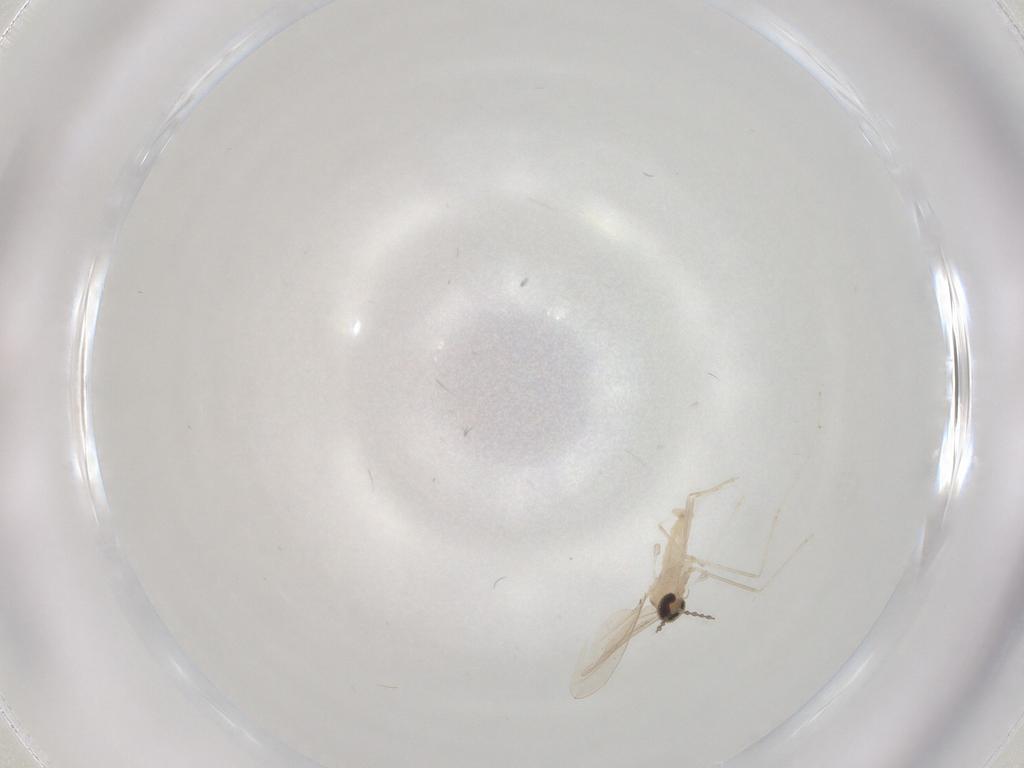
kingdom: Animalia
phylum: Arthropoda
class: Insecta
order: Diptera
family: Cecidomyiidae
